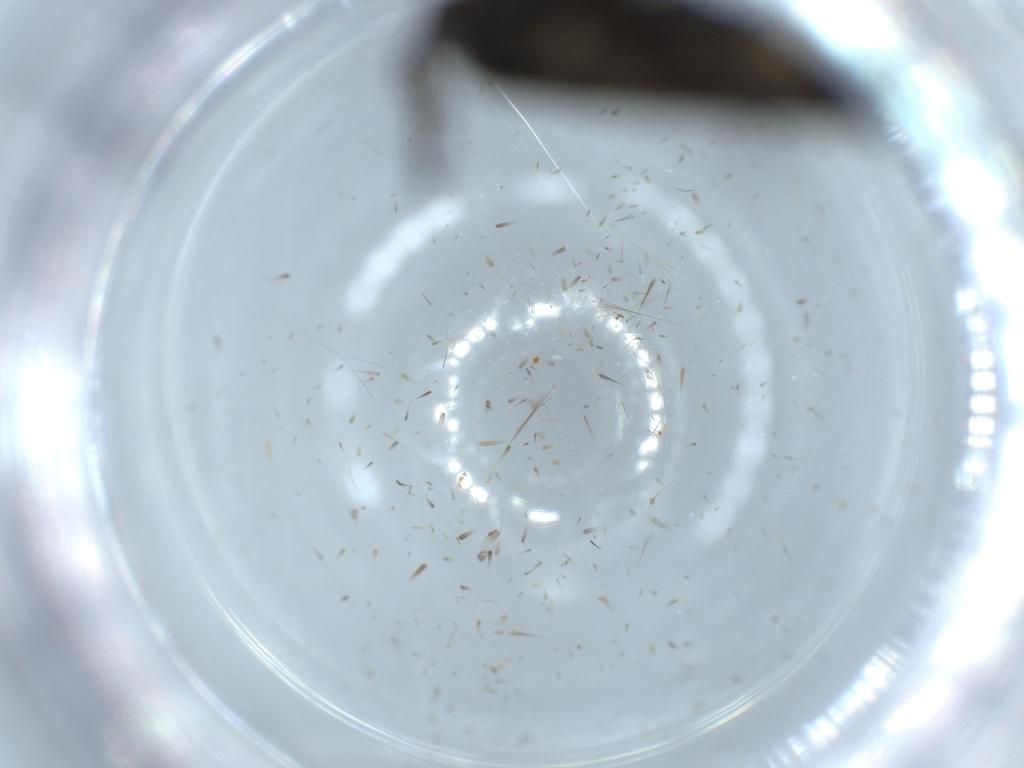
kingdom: Animalia
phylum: Arthropoda
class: Insecta
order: Lepidoptera
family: Cosmopterigidae
